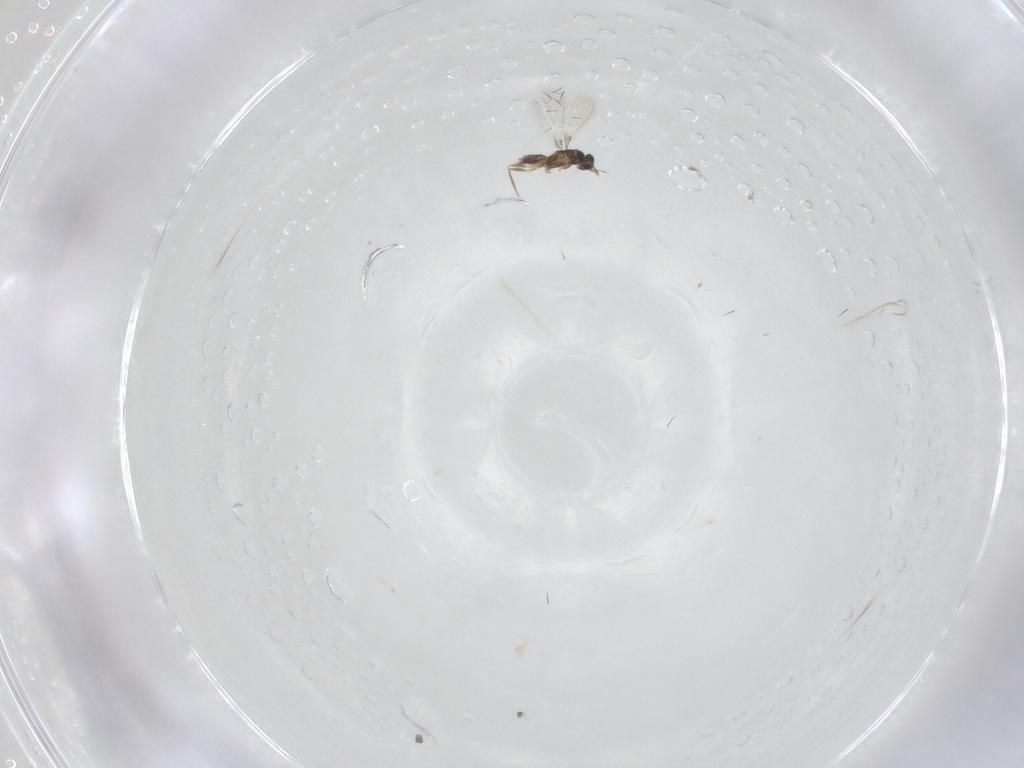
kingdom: Animalia
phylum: Arthropoda
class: Insecta
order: Hymenoptera
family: Mymaridae
